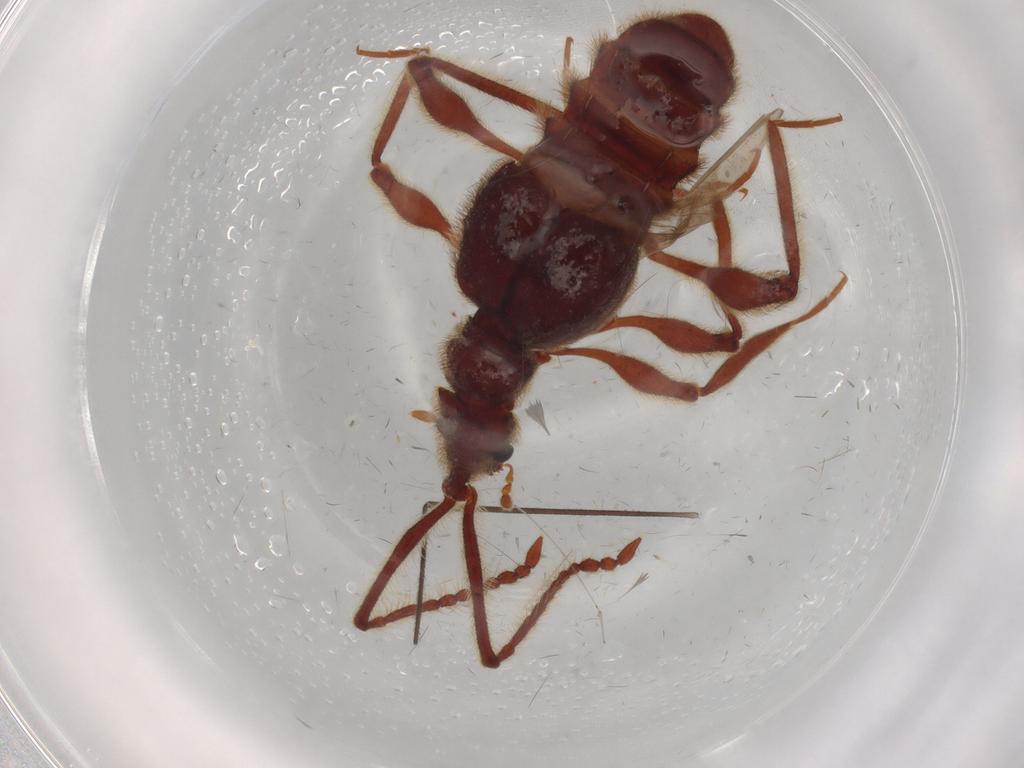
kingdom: Animalia
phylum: Arthropoda
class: Insecta
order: Coleoptera
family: Staphylinidae
